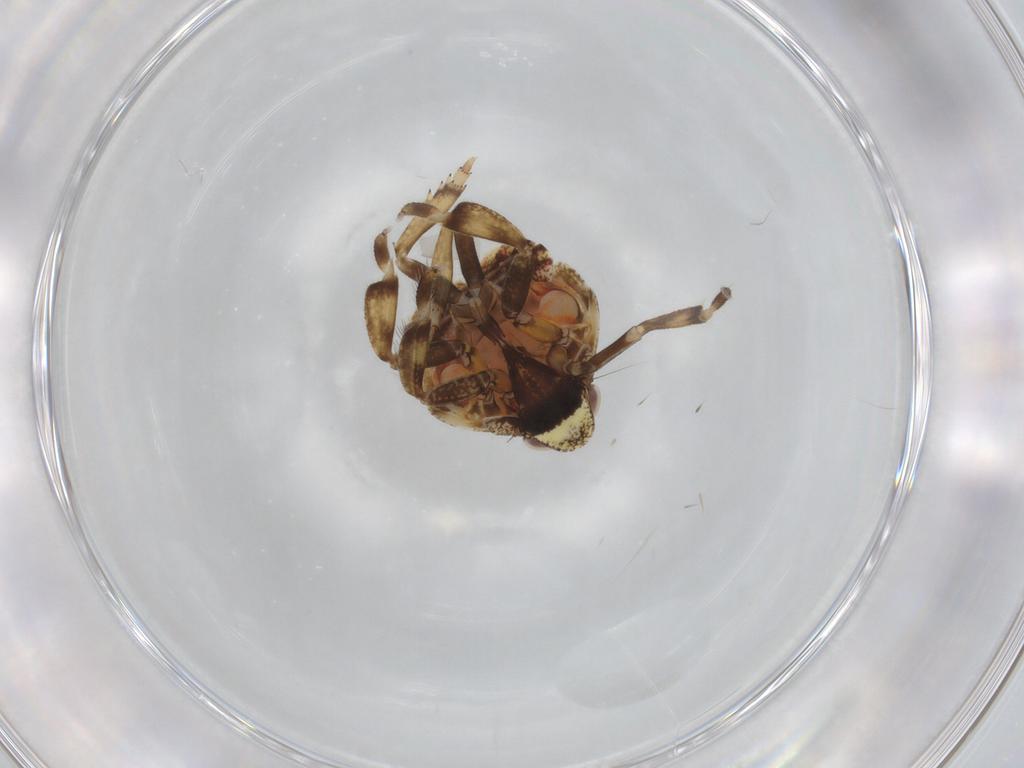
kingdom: Animalia
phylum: Arthropoda
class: Insecta
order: Hemiptera
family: Issidae
